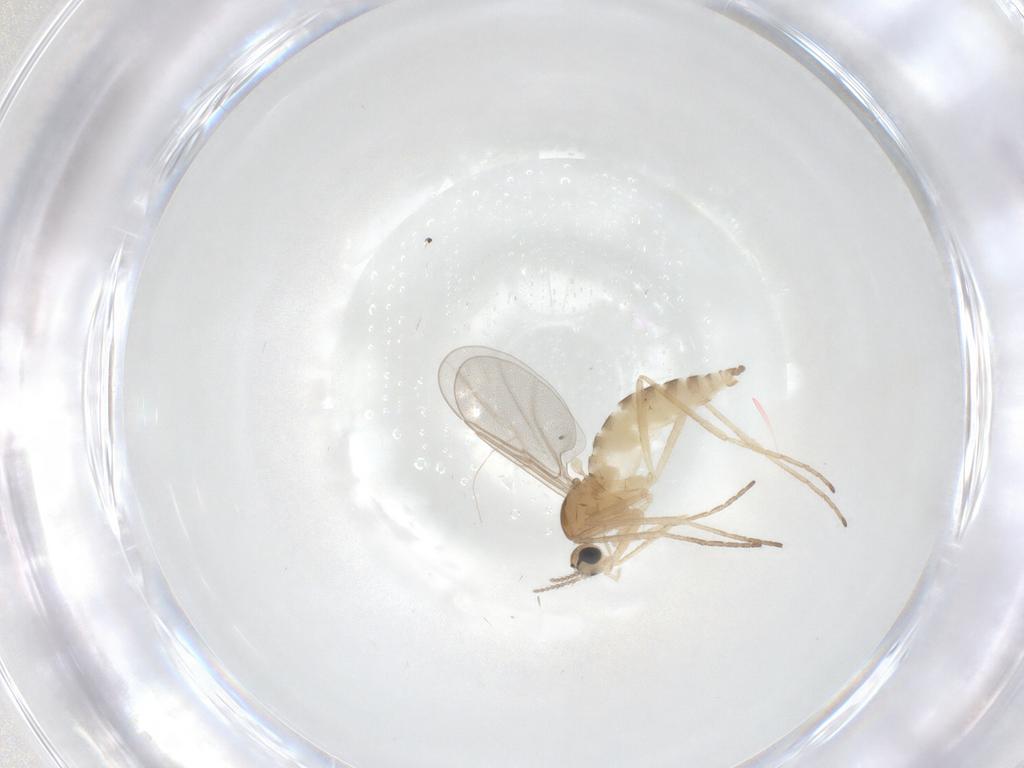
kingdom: Animalia
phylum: Arthropoda
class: Insecta
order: Diptera
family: Cecidomyiidae
